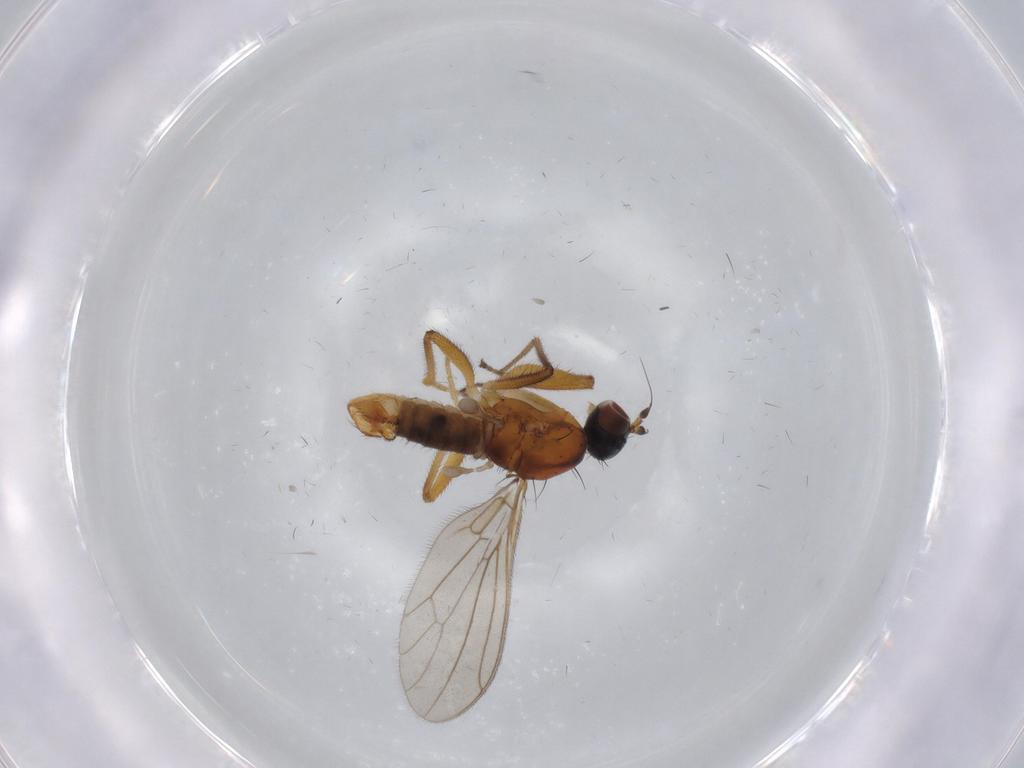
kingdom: Animalia
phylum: Arthropoda
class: Insecta
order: Diptera
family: Empididae
